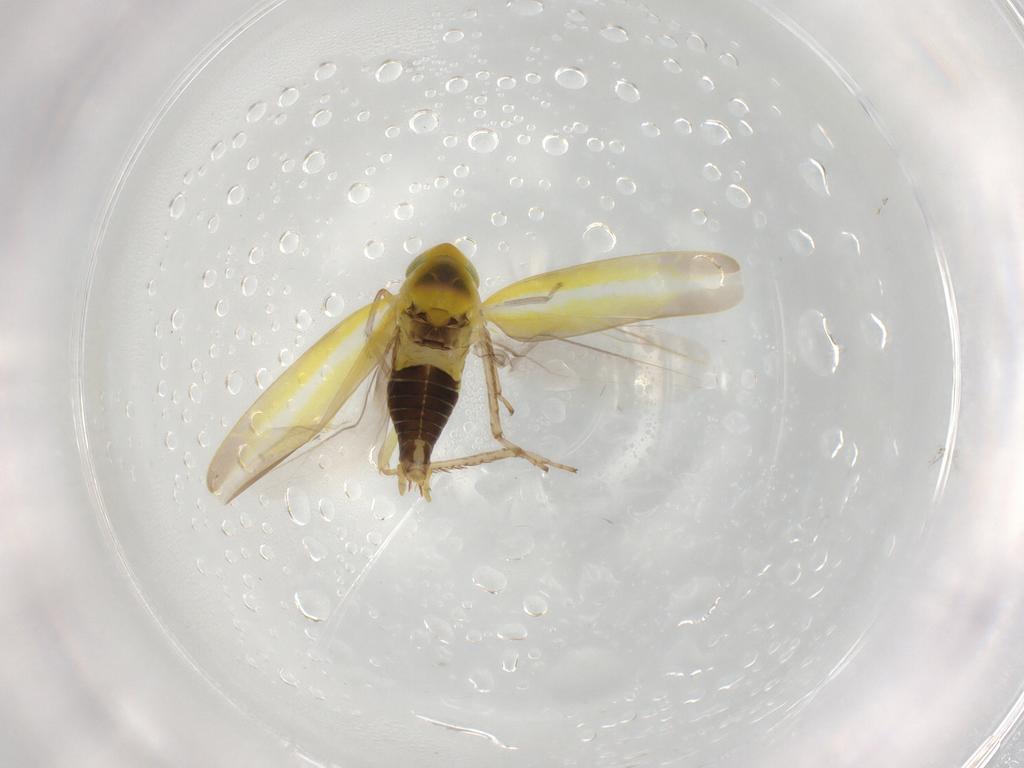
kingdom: Animalia
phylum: Arthropoda
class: Insecta
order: Hemiptera
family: Cicadellidae
